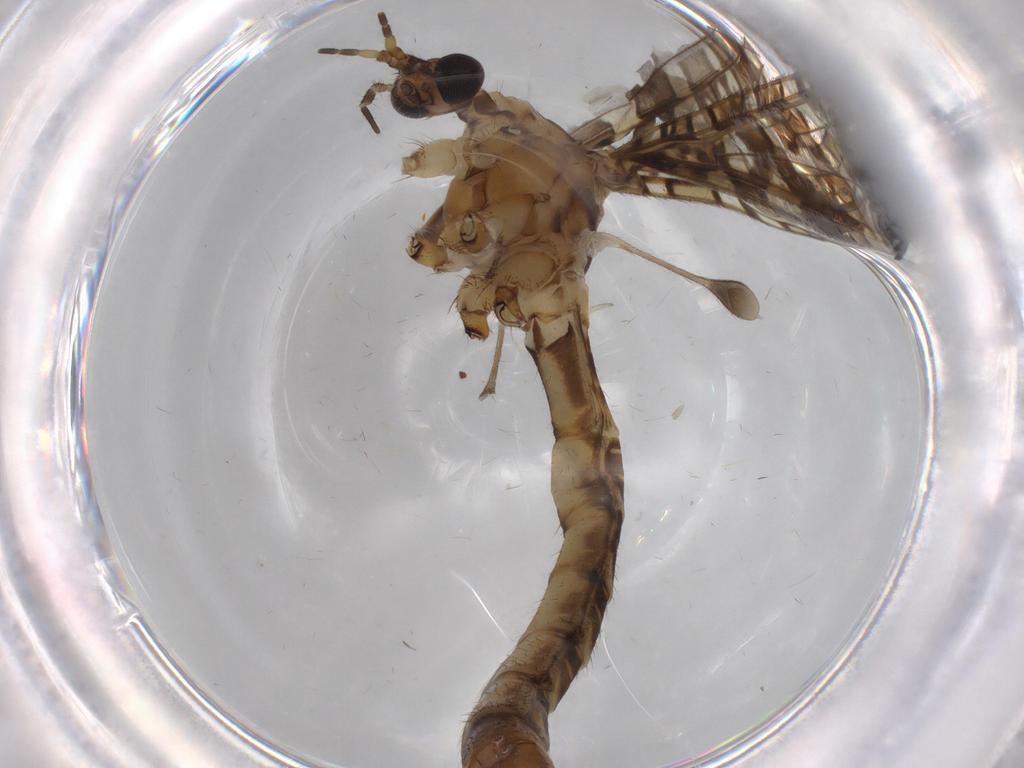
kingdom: Animalia
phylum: Arthropoda
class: Insecta
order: Diptera
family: Limoniidae
